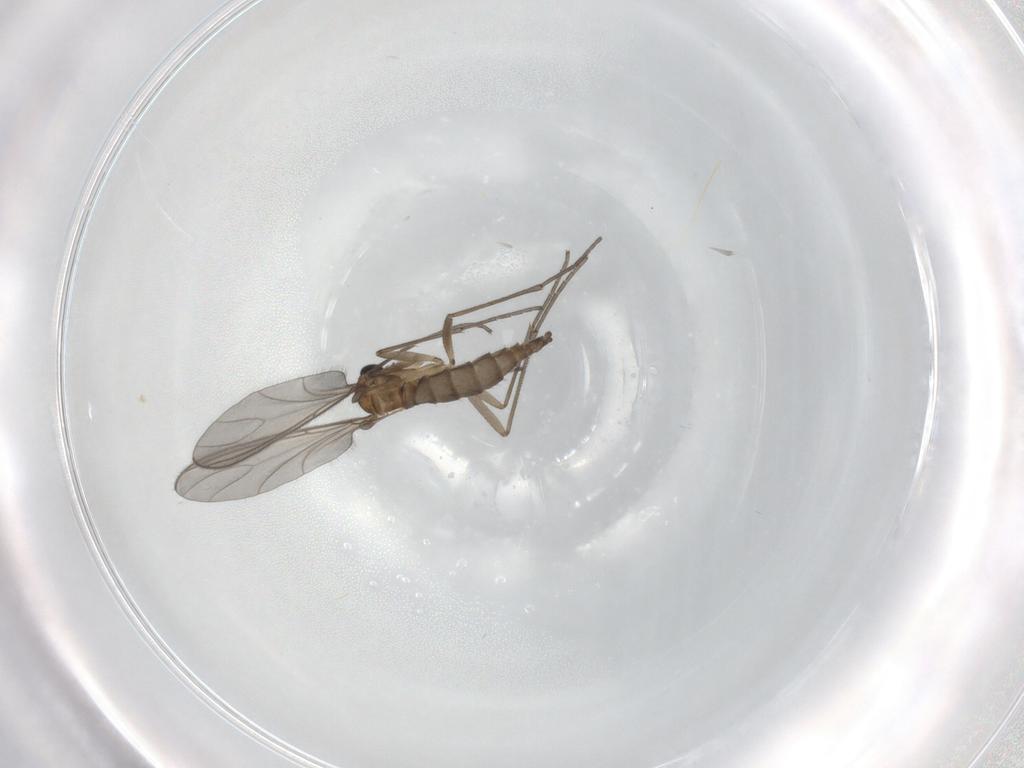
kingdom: Animalia
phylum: Arthropoda
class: Insecta
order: Diptera
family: Sciaridae
